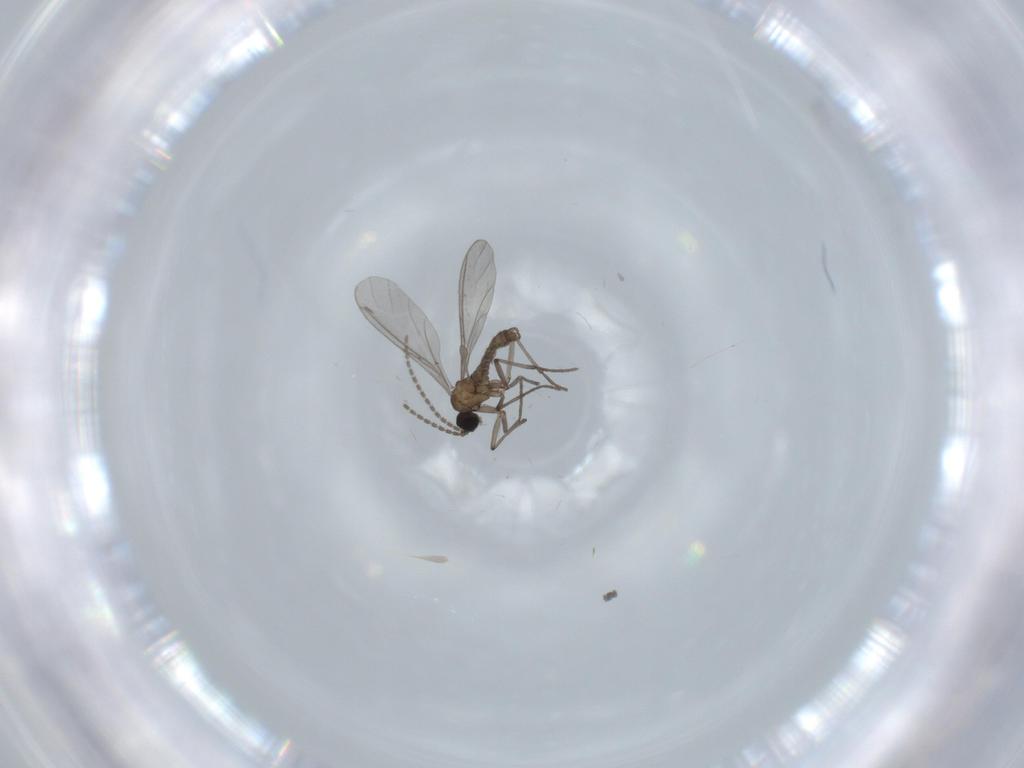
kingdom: Animalia
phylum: Arthropoda
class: Insecta
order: Diptera
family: Sciaridae
